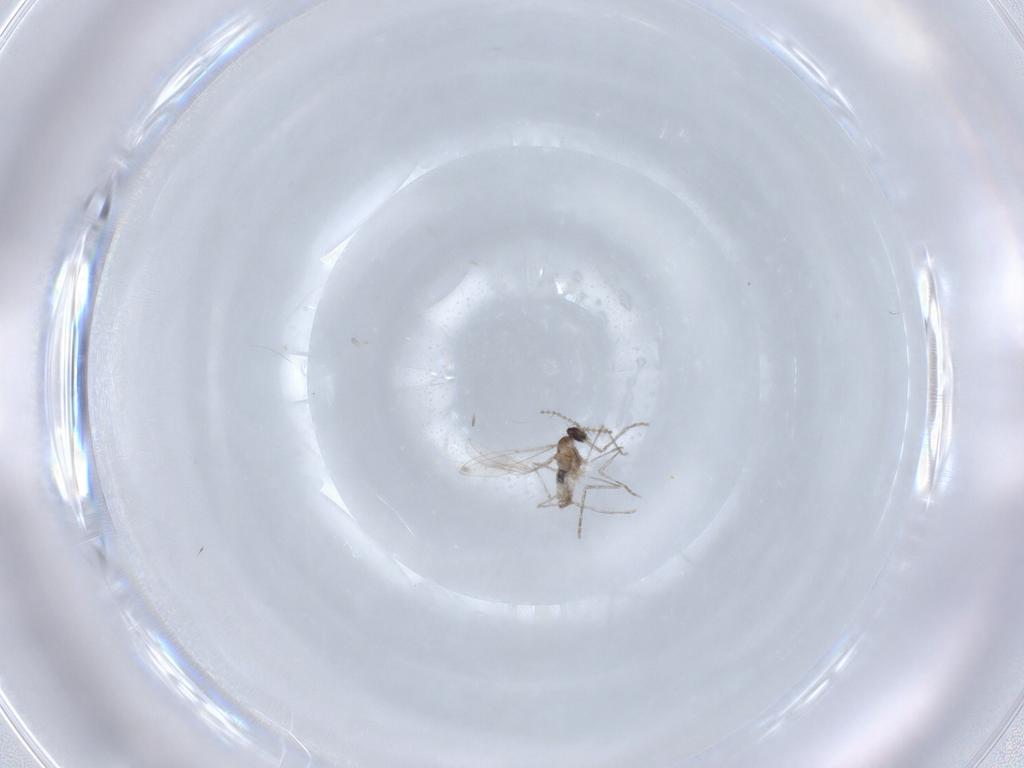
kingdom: Animalia
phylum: Arthropoda
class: Insecta
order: Diptera
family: Cecidomyiidae
